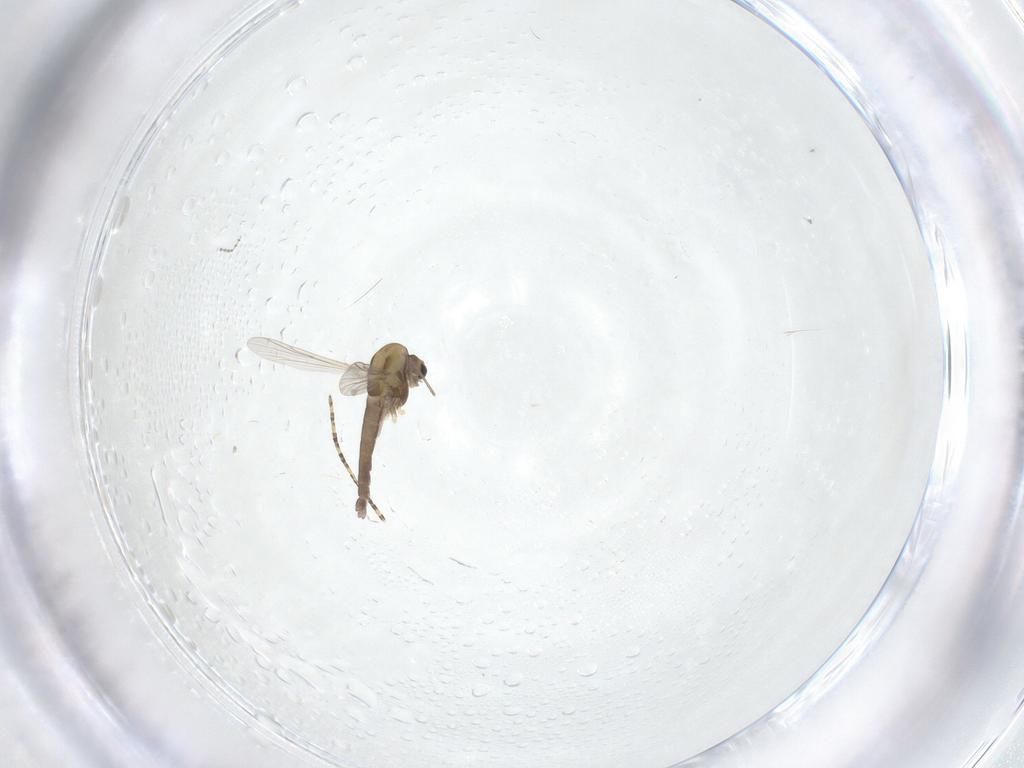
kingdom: Animalia
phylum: Arthropoda
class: Insecta
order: Diptera
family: Chironomidae
